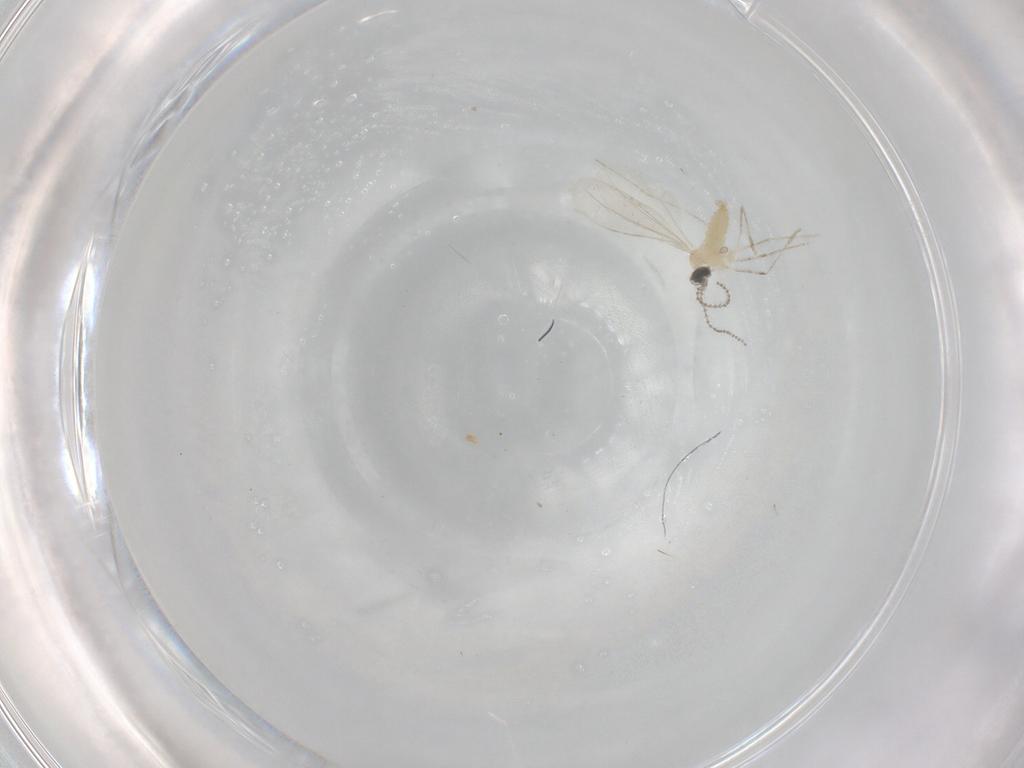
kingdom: Animalia
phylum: Arthropoda
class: Insecta
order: Diptera
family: Cecidomyiidae
